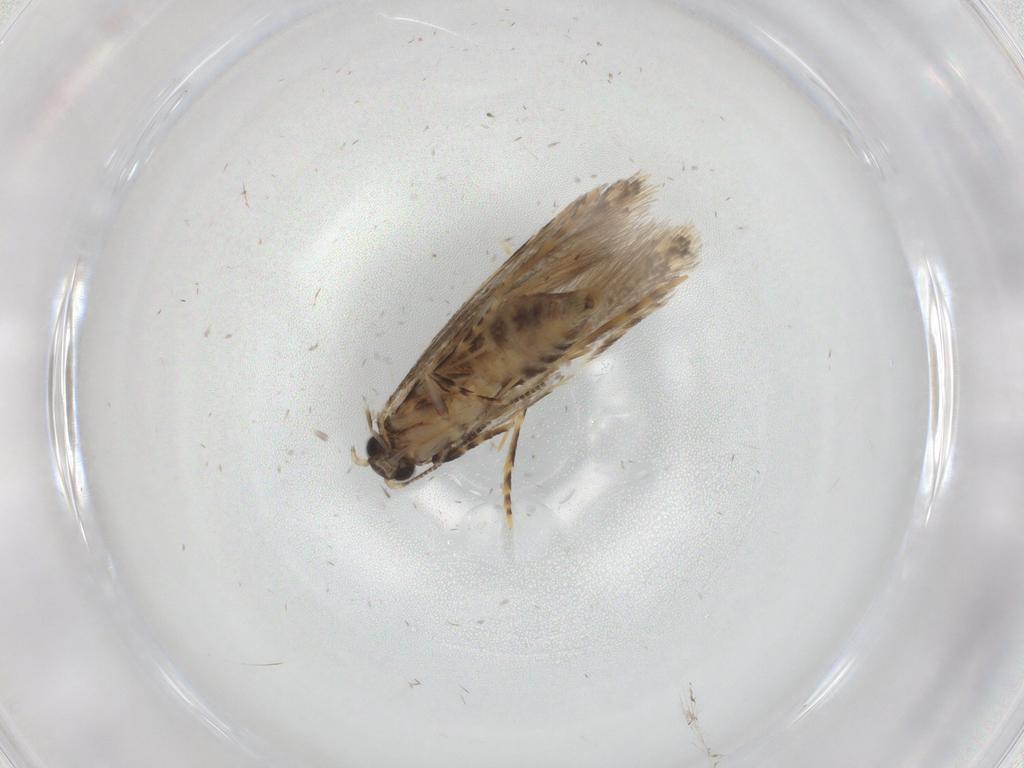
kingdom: Animalia
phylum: Arthropoda
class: Insecta
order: Lepidoptera
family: Tineidae
